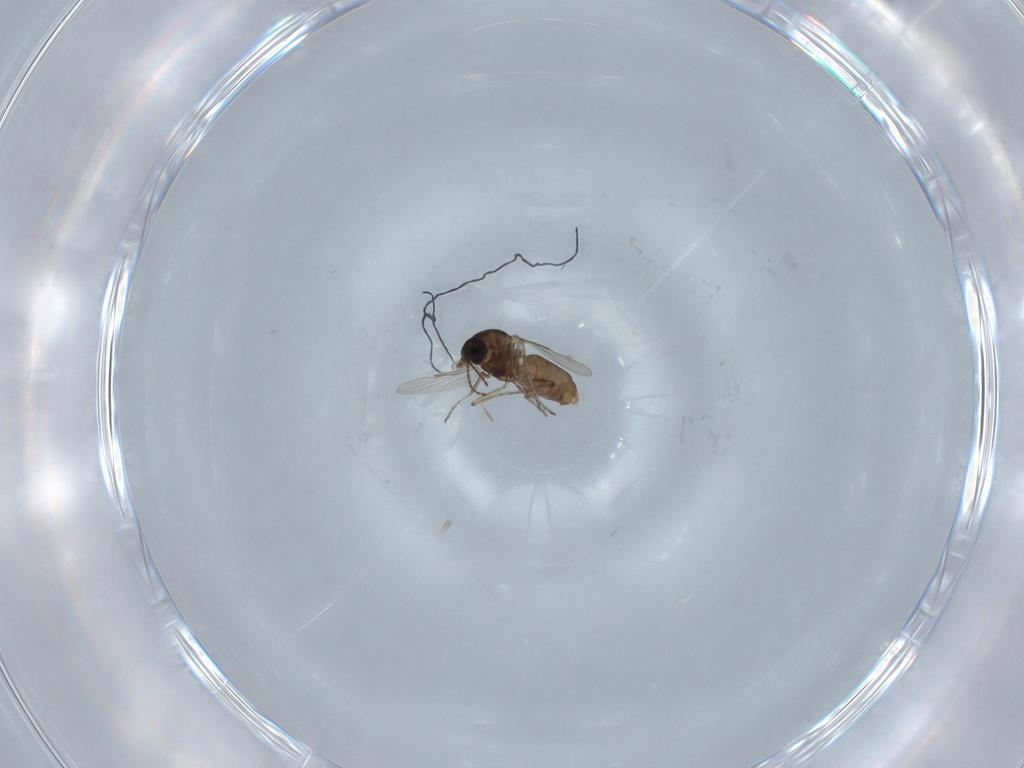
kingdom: Animalia
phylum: Arthropoda
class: Insecta
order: Diptera
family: Ceratopogonidae
